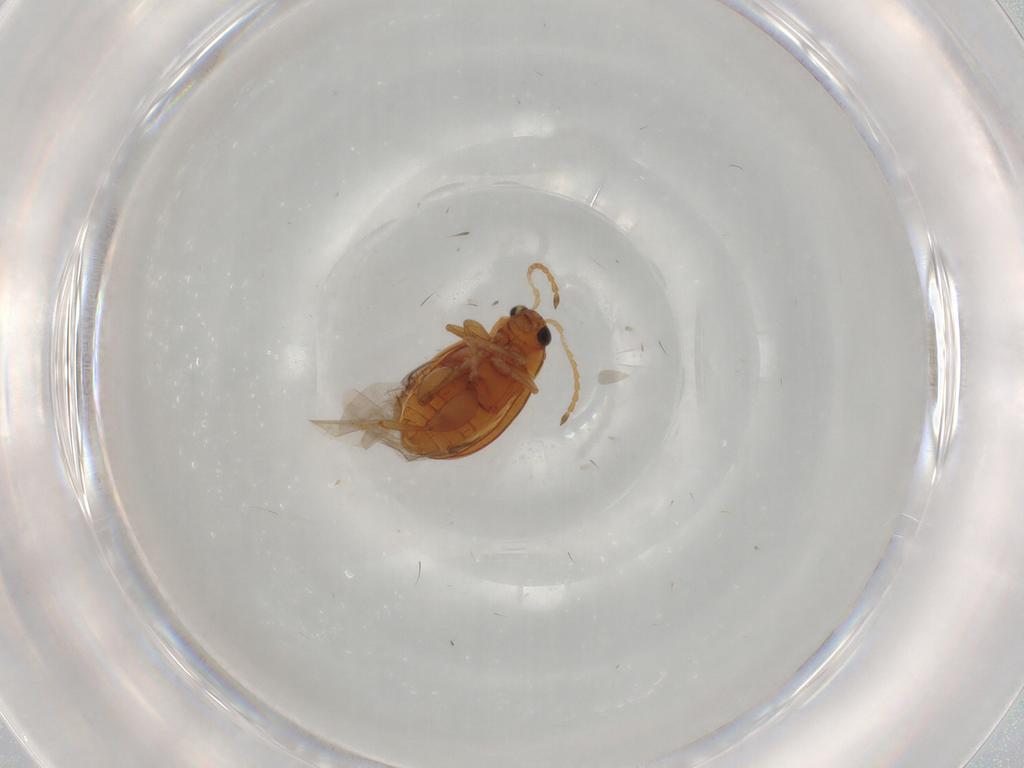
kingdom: Animalia
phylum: Arthropoda
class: Insecta
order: Coleoptera
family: Chrysomelidae
